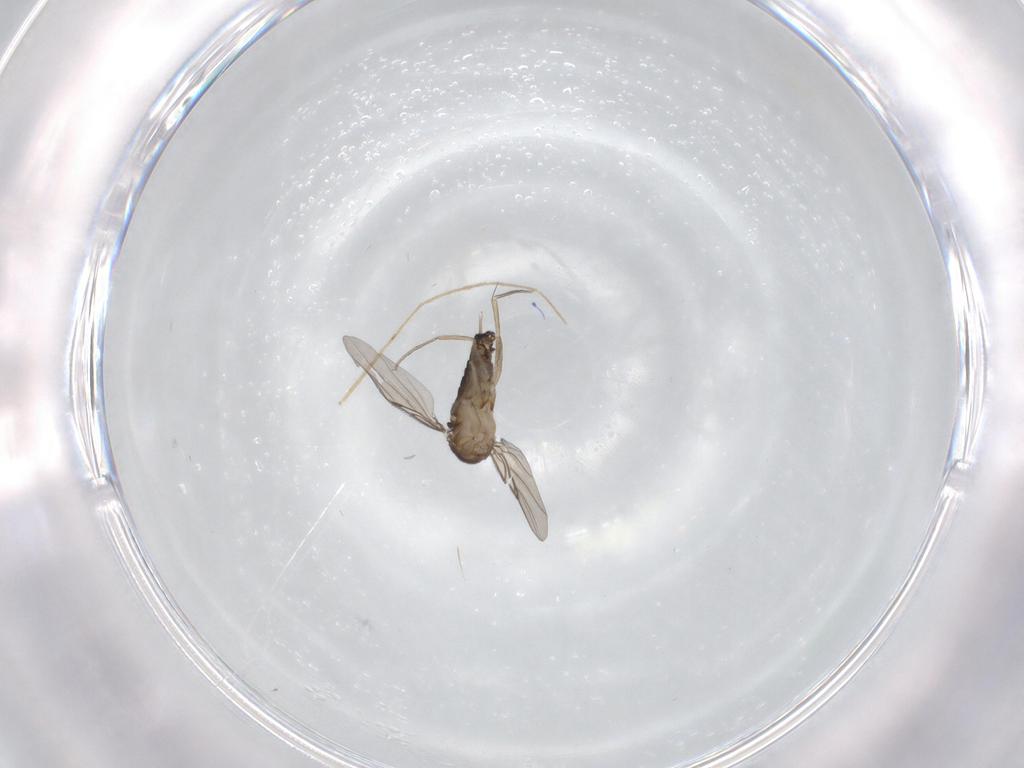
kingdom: Animalia
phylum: Arthropoda
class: Insecta
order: Diptera
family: Chironomidae
